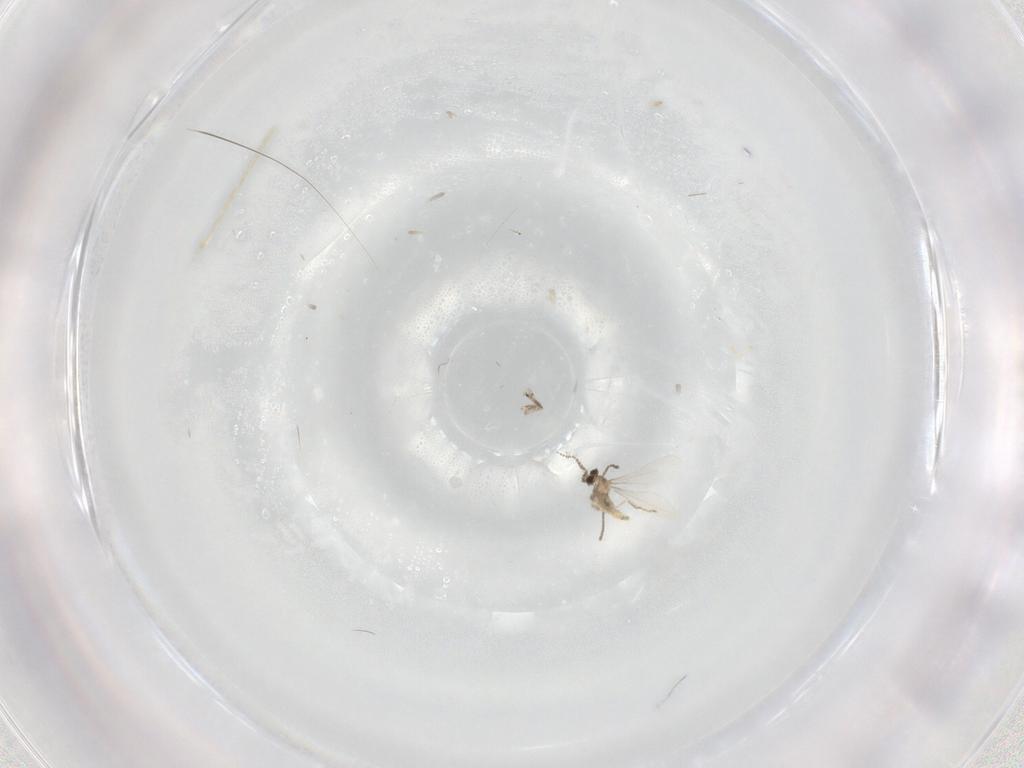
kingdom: Animalia
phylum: Arthropoda
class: Insecta
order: Diptera
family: Cecidomyiidae
